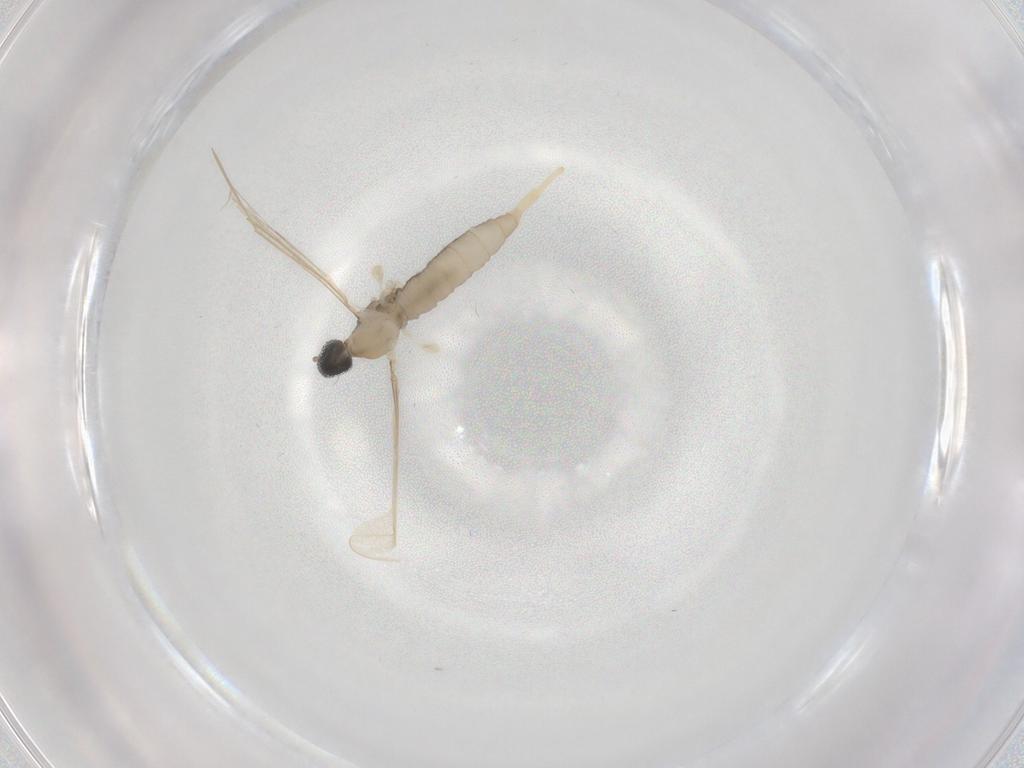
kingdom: Animalia
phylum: Arthropoda
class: Insecta
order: Diptera
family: Cecidomyiidae
